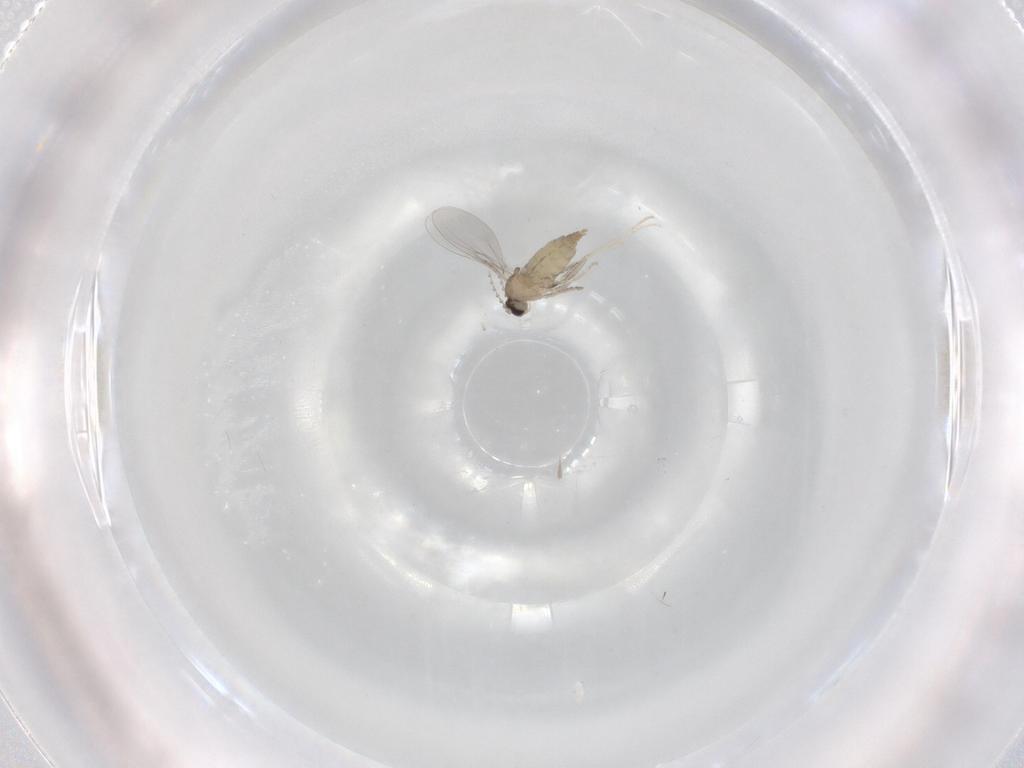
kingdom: Animalia
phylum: Arthropoda
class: Insecta
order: Diptera
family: Cecidomyiidae
